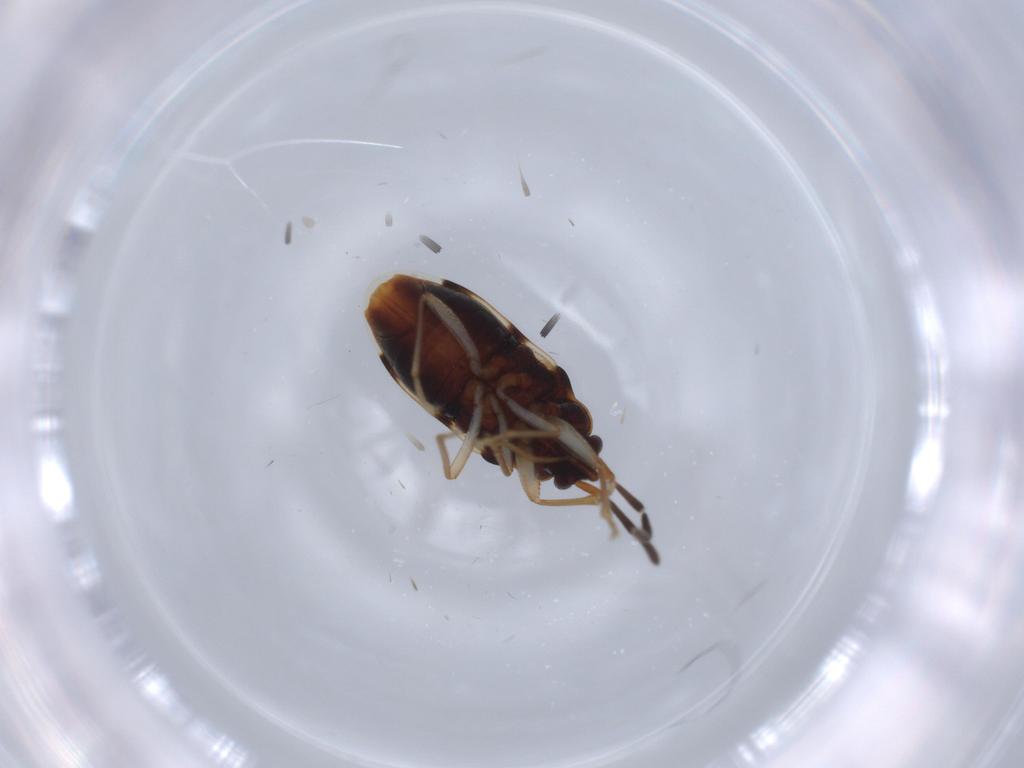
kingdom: Animalia
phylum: Arthropoda
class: Insecta
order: Hemiptera
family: Rhyparochromidae
